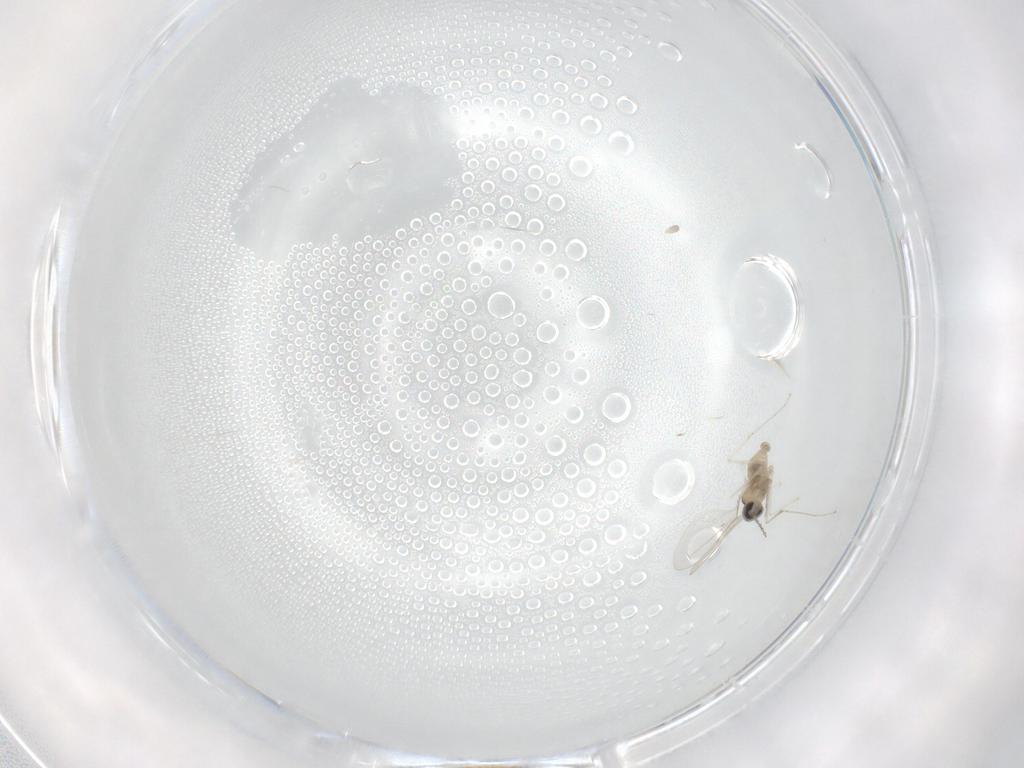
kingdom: Animalia
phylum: Arthropoda
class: Insecta
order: Diptera
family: Cecidomyiidae
